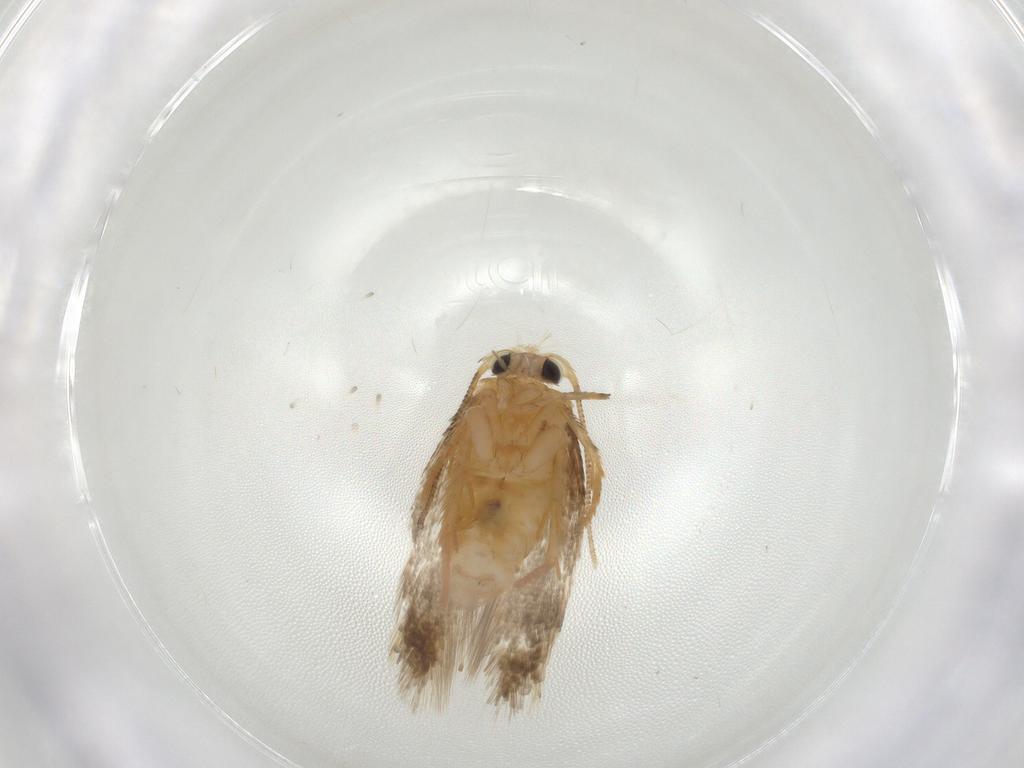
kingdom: Animalia
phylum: Arthropoda
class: Insecta
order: Lepidoptera
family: Nepticulidae
